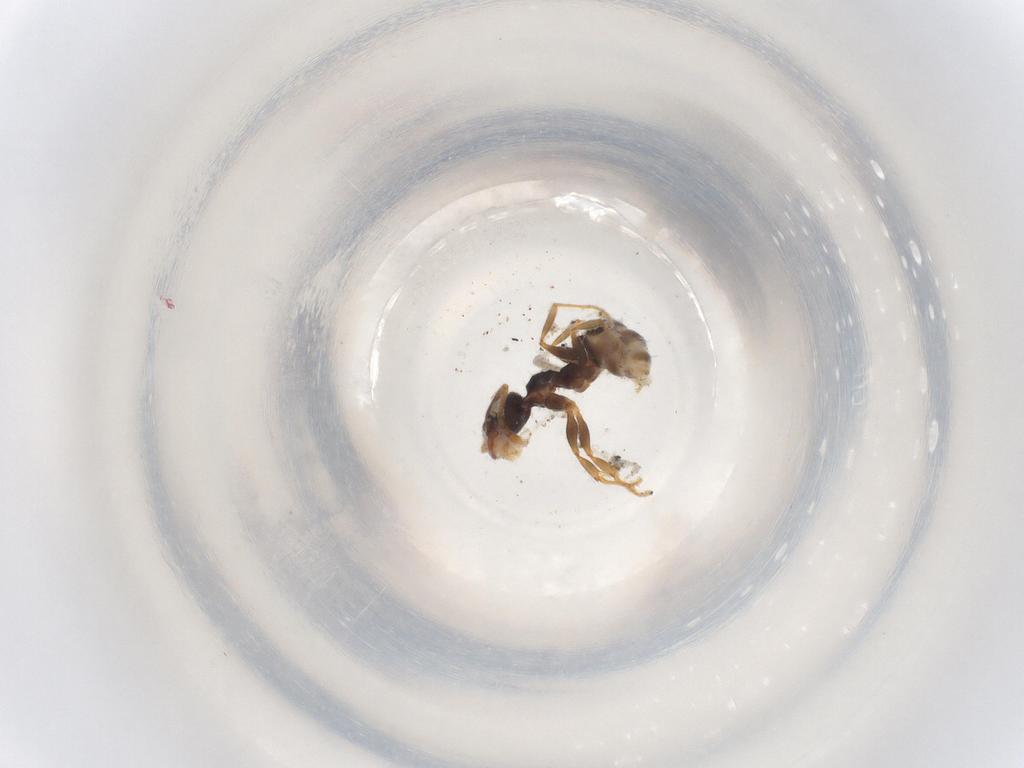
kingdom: Animalia
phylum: Arthropoda
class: Insecta
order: Hymenoptera
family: Formicidae
